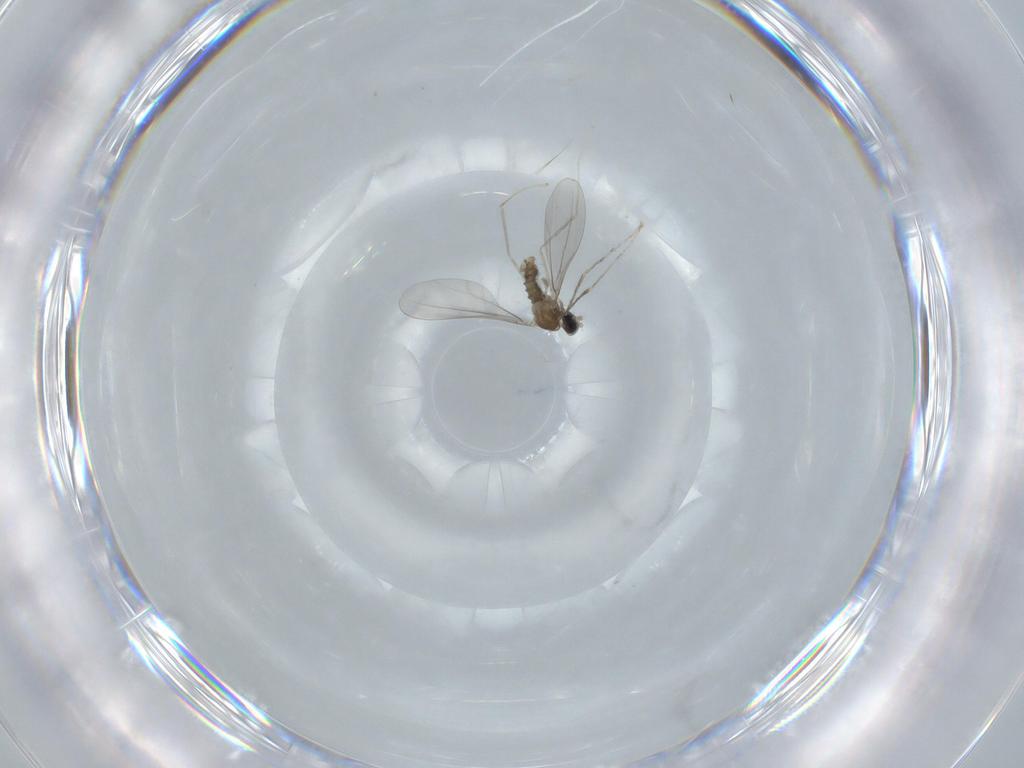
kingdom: Animalia
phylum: Arthropoda
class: Insecta
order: Diptera
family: Cecidomyiidae
